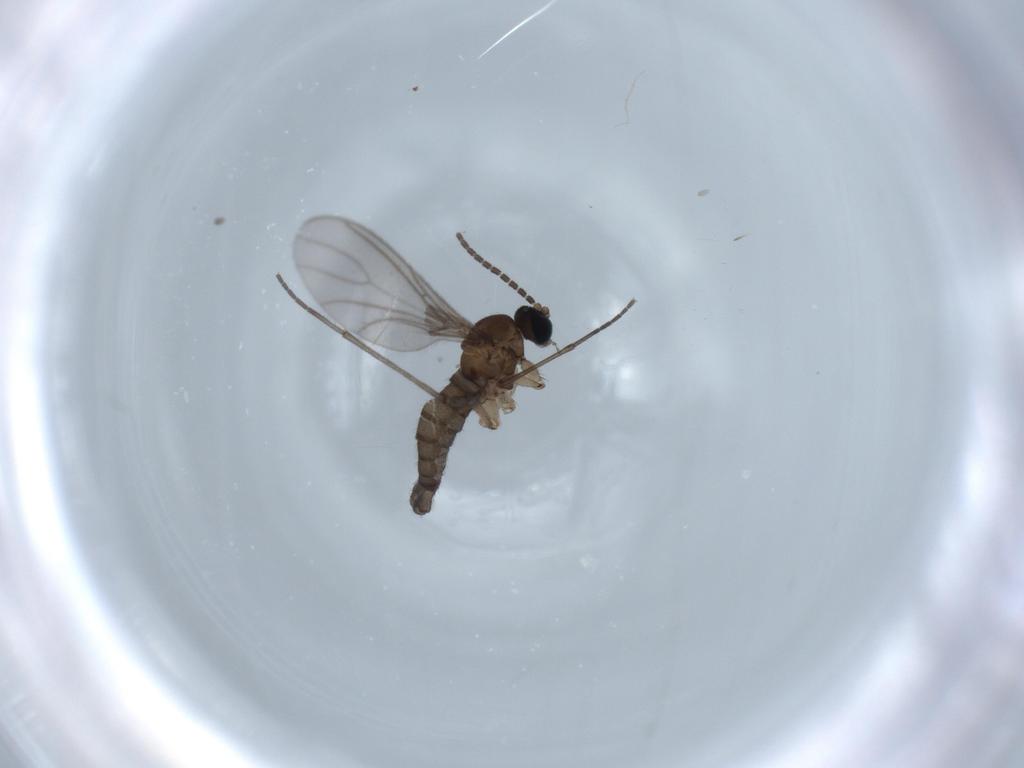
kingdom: Animalia
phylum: Arthropoda
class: Insecta
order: Diptera
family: Sciaridae
